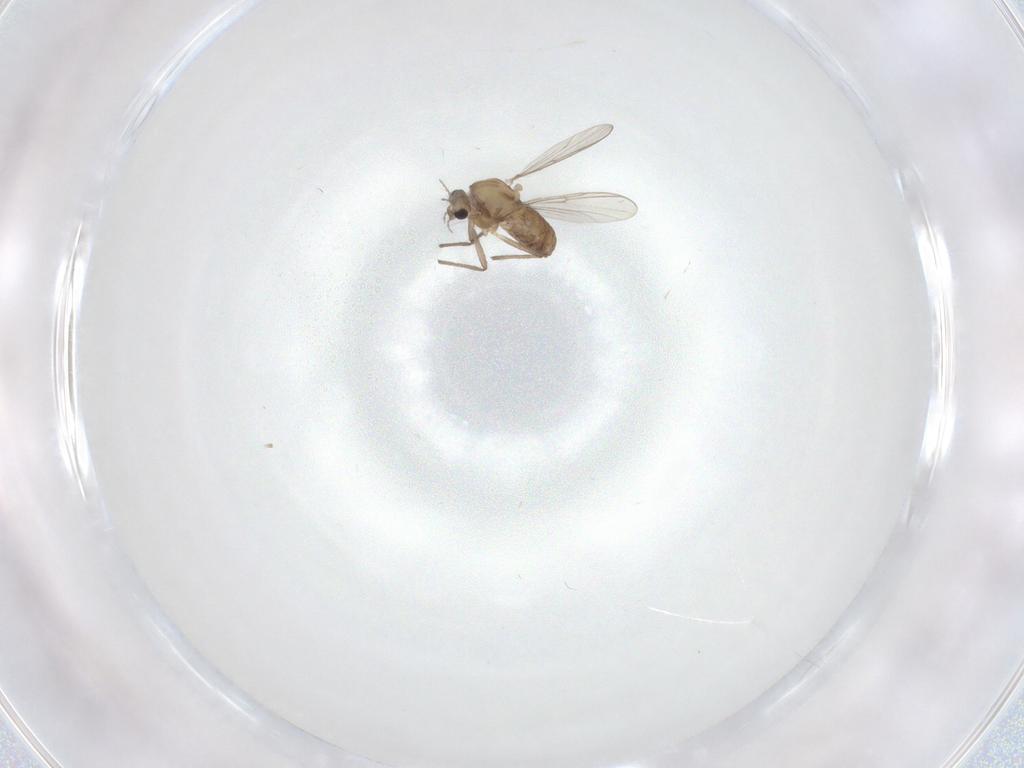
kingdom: Animalia
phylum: Arthropoda
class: Insecta
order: Diptera
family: Chironomidae
